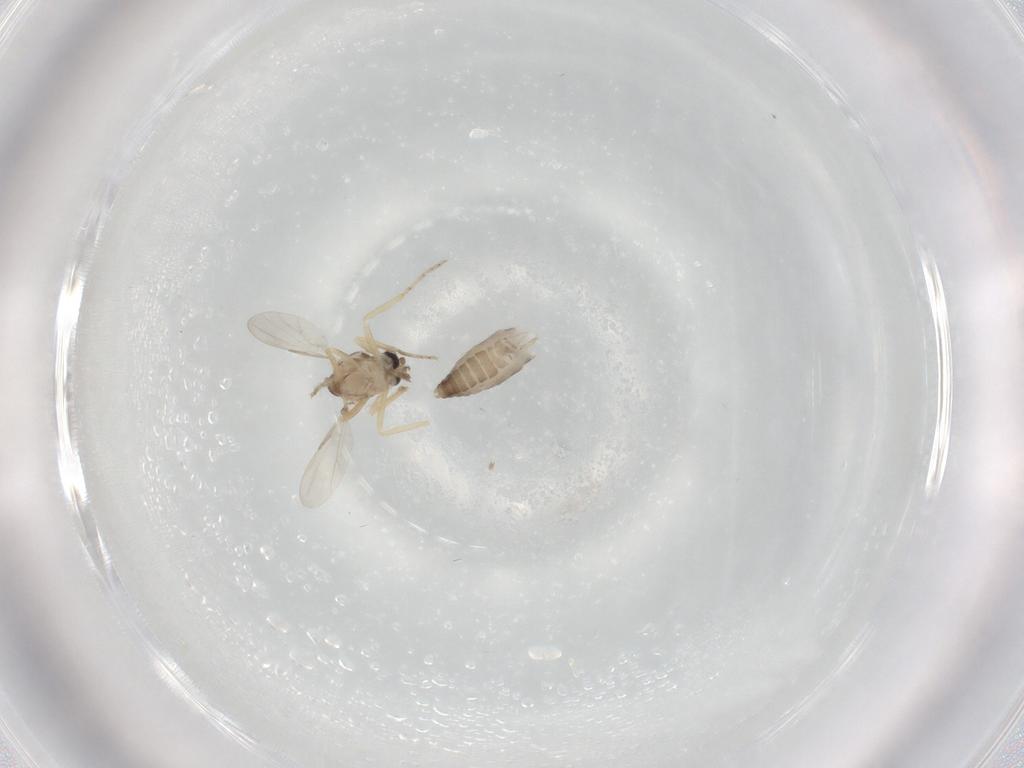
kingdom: Animalia
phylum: Arthropoda
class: Insecta
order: Diptera
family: Ceratopogonidae
